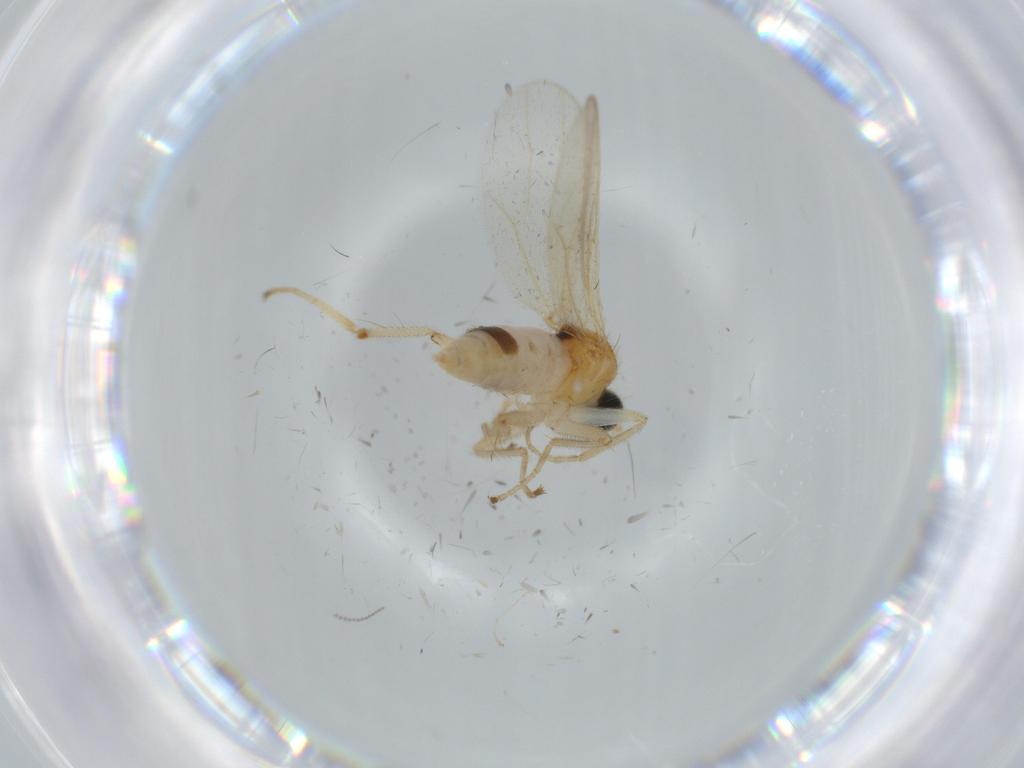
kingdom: Animalia
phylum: Arthropoda
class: Insecta
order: Diptera
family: Hybotidae
